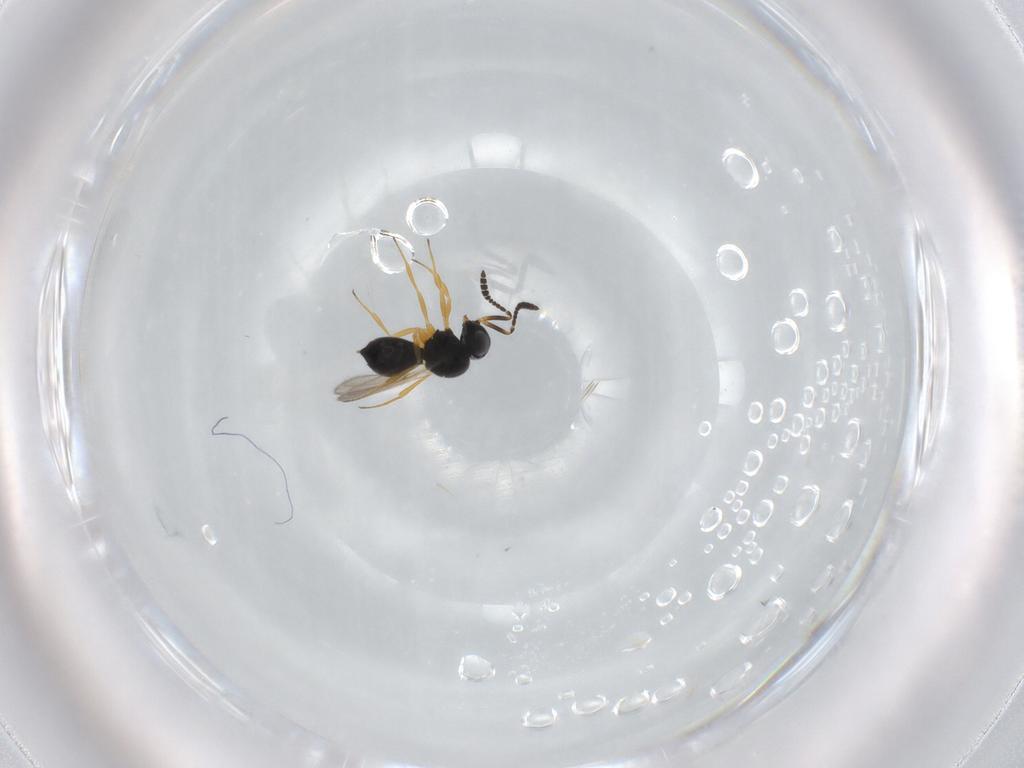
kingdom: Animalia
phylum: Arthropoda
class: Insecta
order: Hymenoptera
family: Scelionidae
